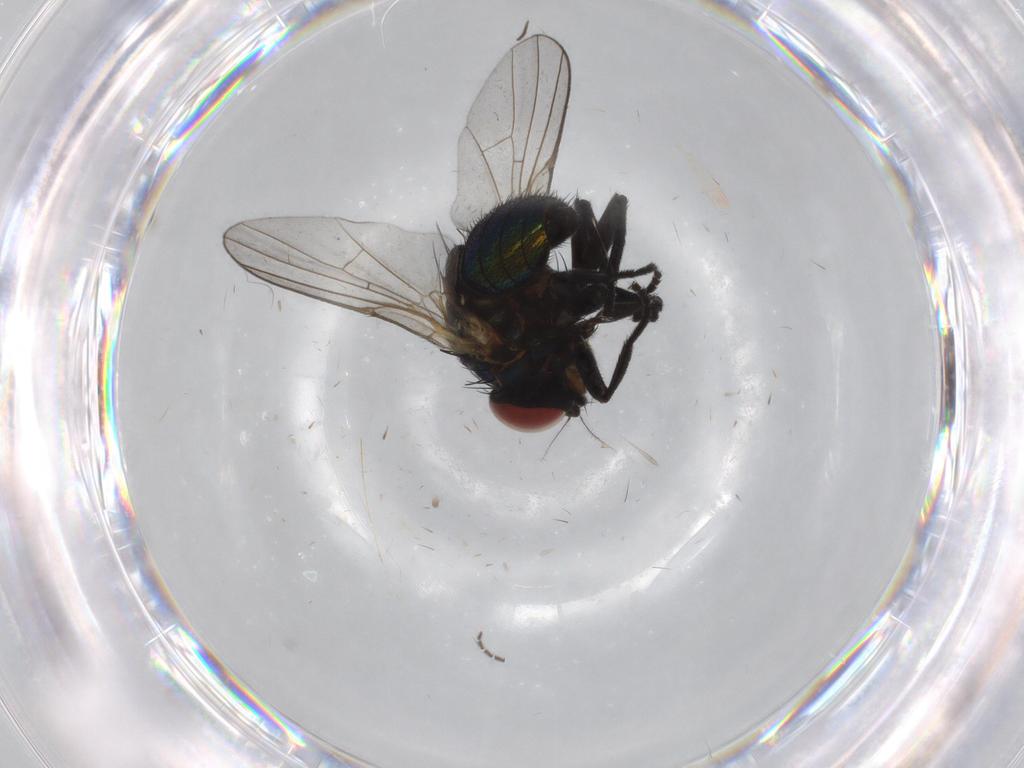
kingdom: Animalia
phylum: Arthropoda
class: Insecta
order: Diptera
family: Agromyzidae
